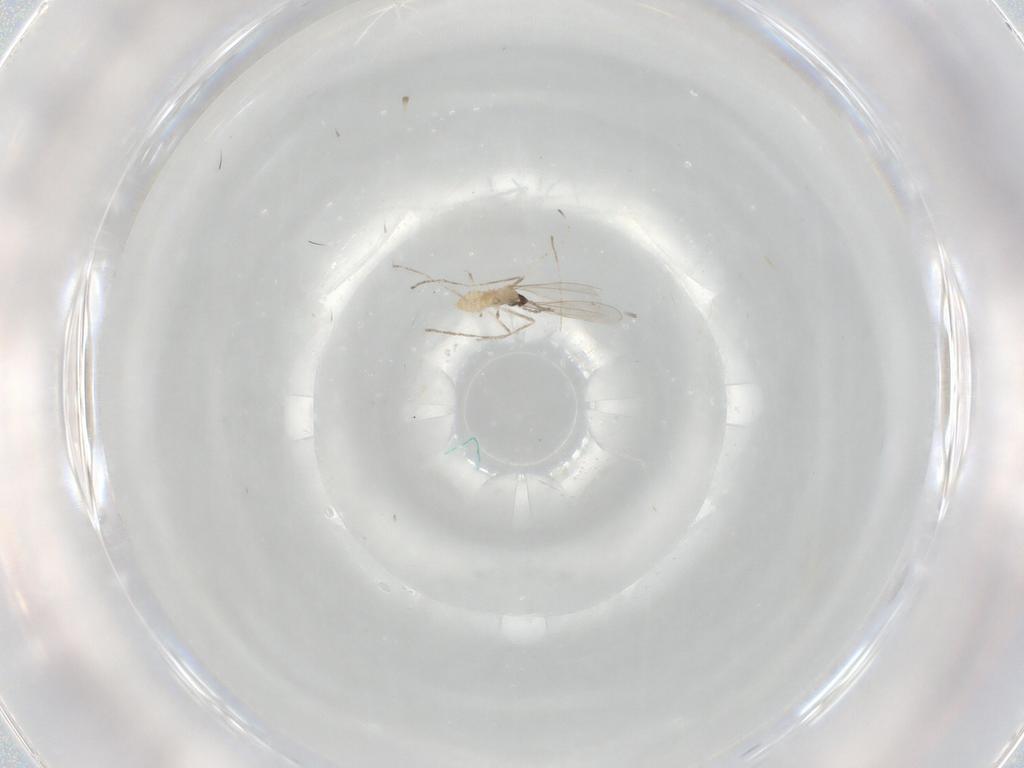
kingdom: Animalia
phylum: Arthropoda
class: Insecta
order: Diptera
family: Cecidomyiidae
